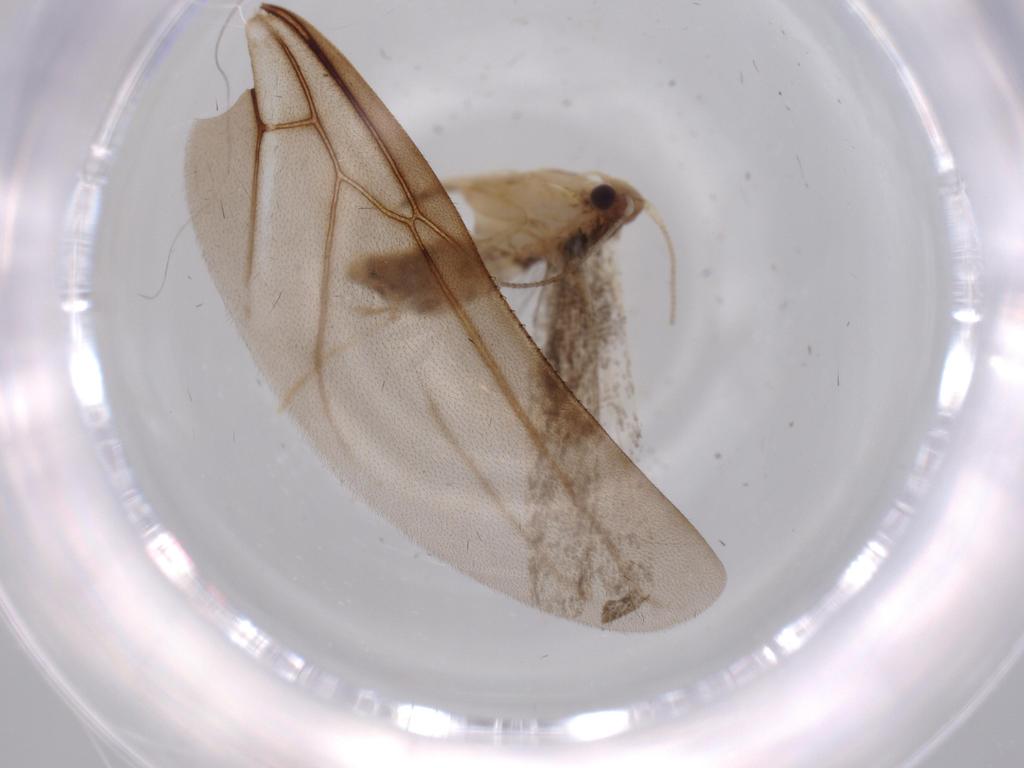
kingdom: Animalia
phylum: Arthropoda
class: Insecta
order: Lepidoptera
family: Tineidae
